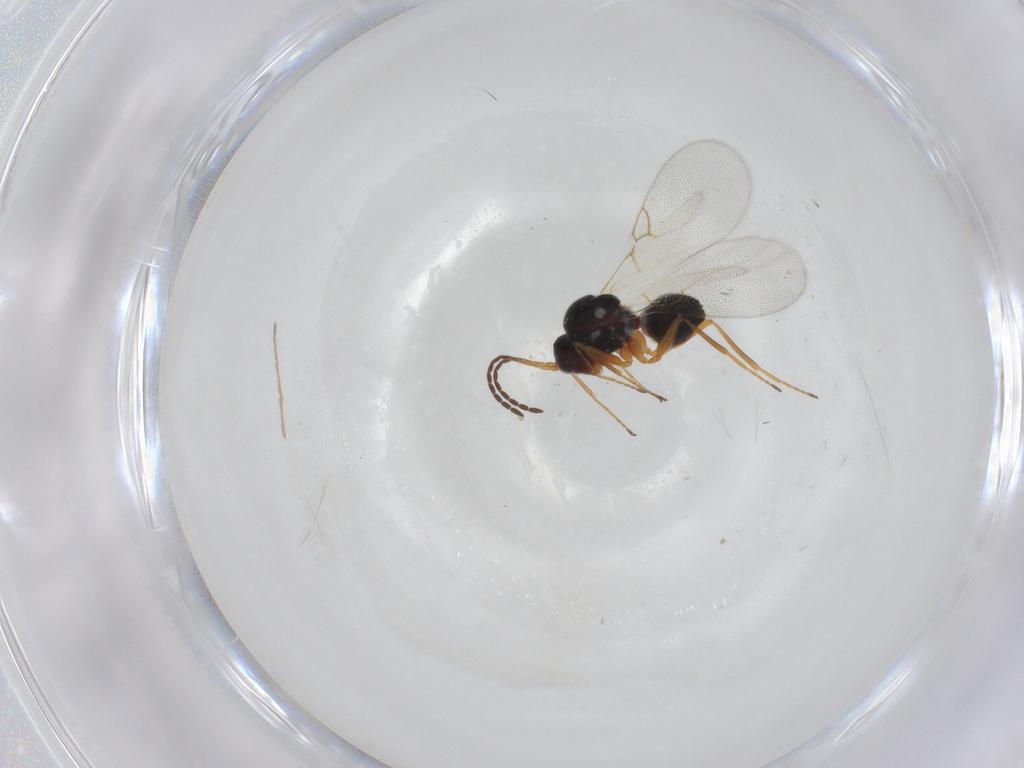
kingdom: Animalia
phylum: Arthropoda
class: Insecta
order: Hymenoptera
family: Figitidae
